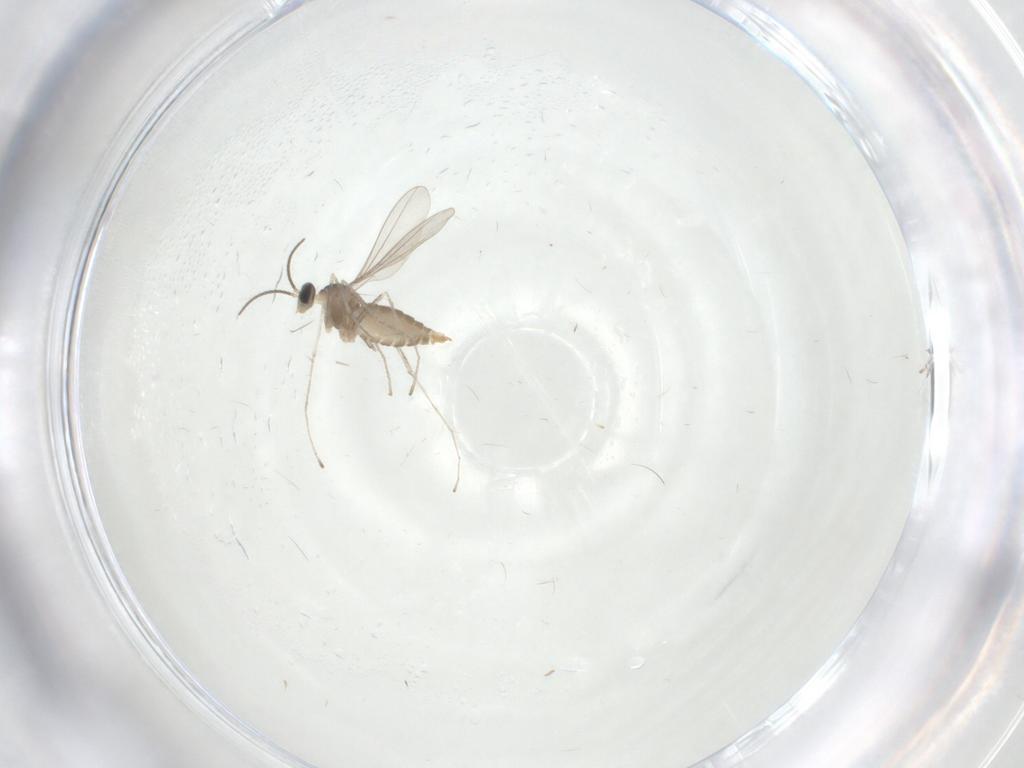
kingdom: Animalia
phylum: Arthropoda
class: Insecta
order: Diptera
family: Cecidomyiidae
